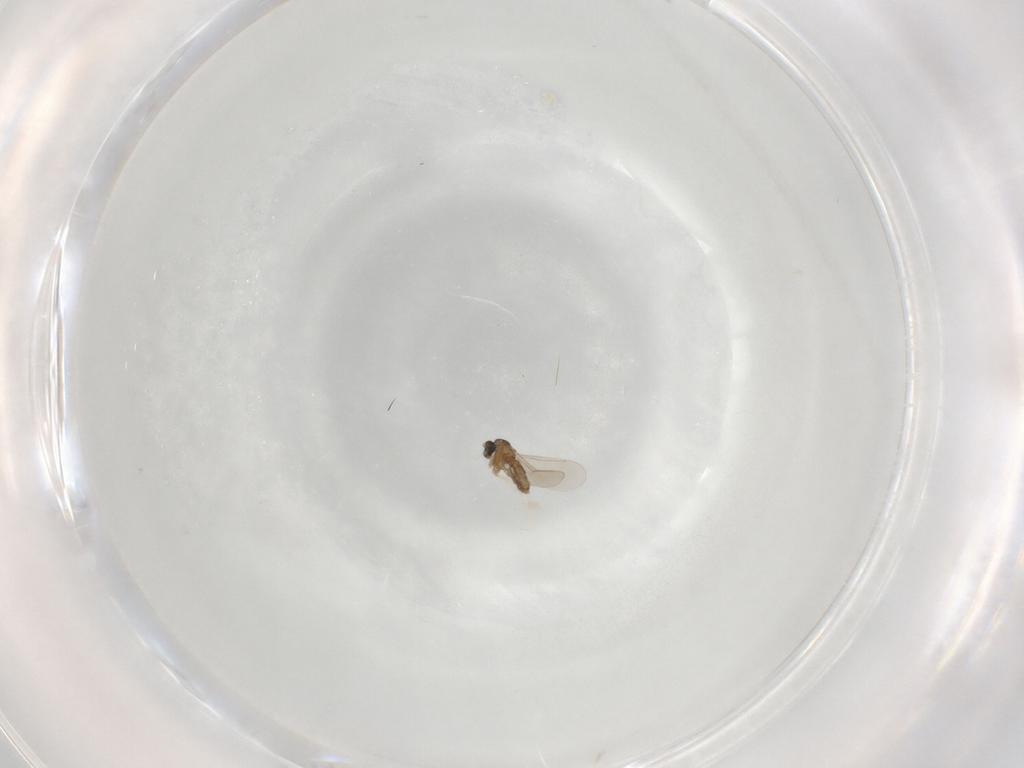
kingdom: Animalia
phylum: Arthropoda
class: Insecta
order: Diptera
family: Cecidomyiidae
